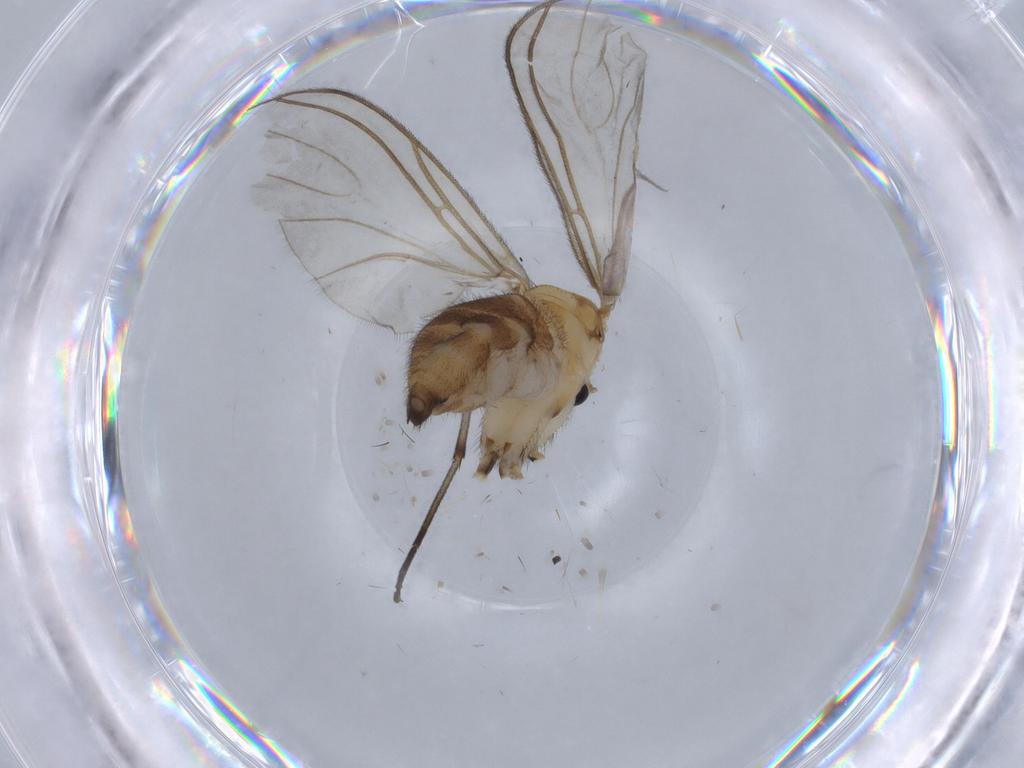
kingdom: Animalia
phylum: Arthropoda
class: Insecta
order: Diptera
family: Sciaridae
